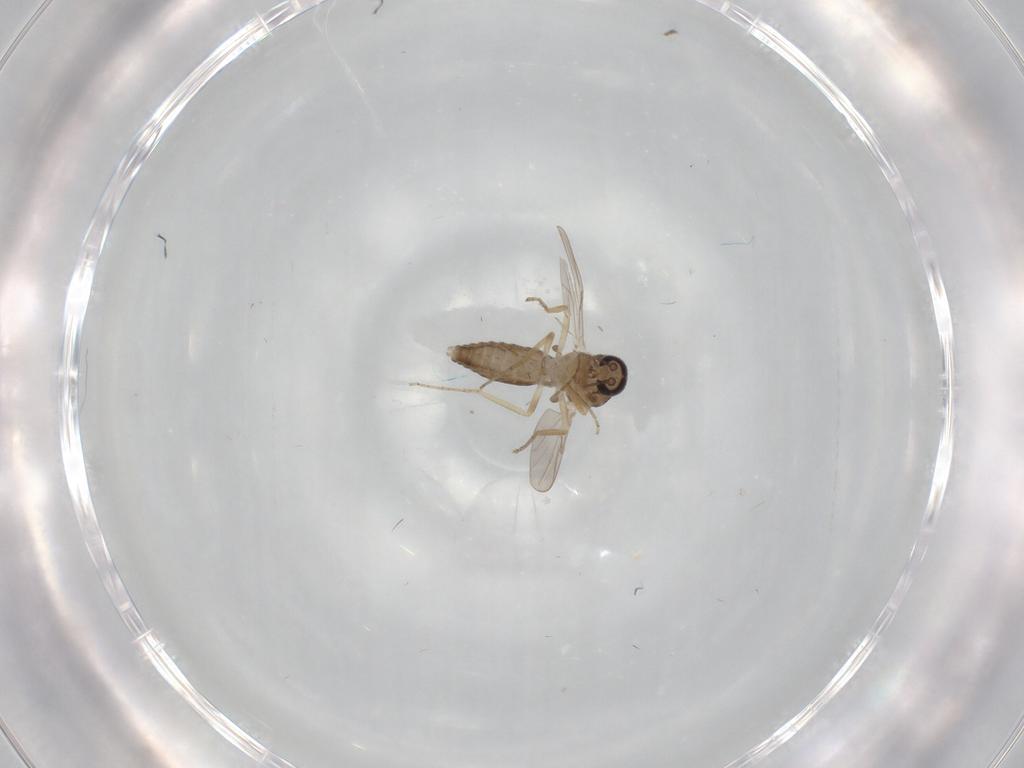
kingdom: Animalia
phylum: Arthropoda
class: Insecta
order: Diptera
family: Ceratopogonidae
